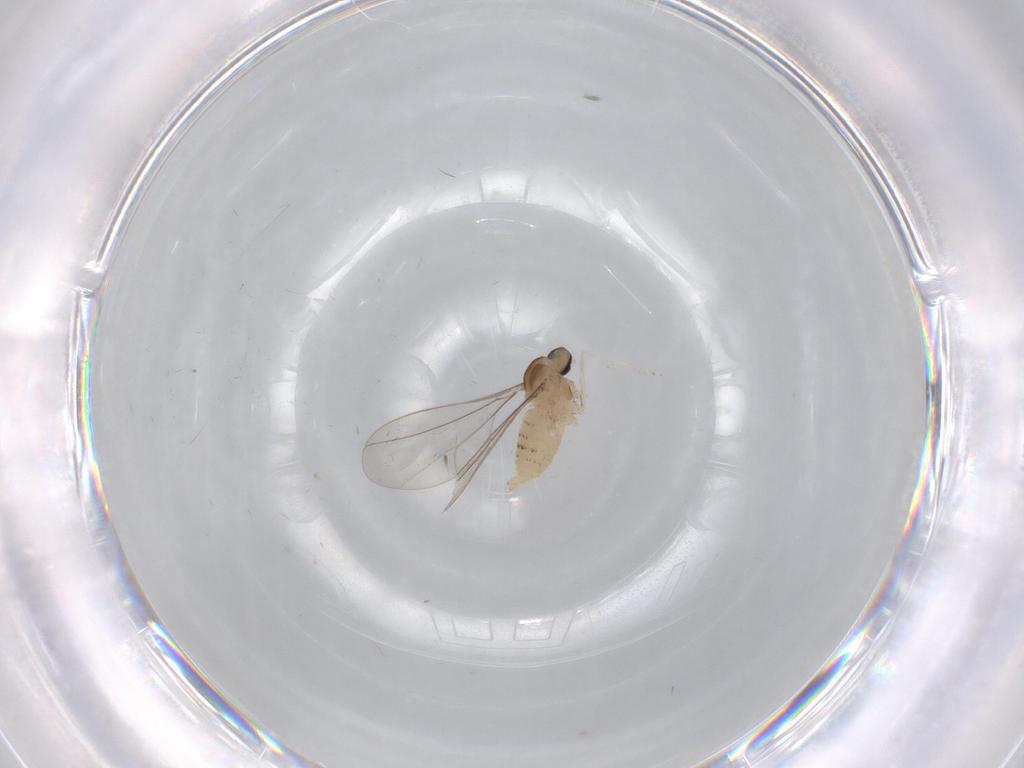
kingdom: Animalia
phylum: Arthropoda
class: Insecta
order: Diptera
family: Cecidomyiidae
